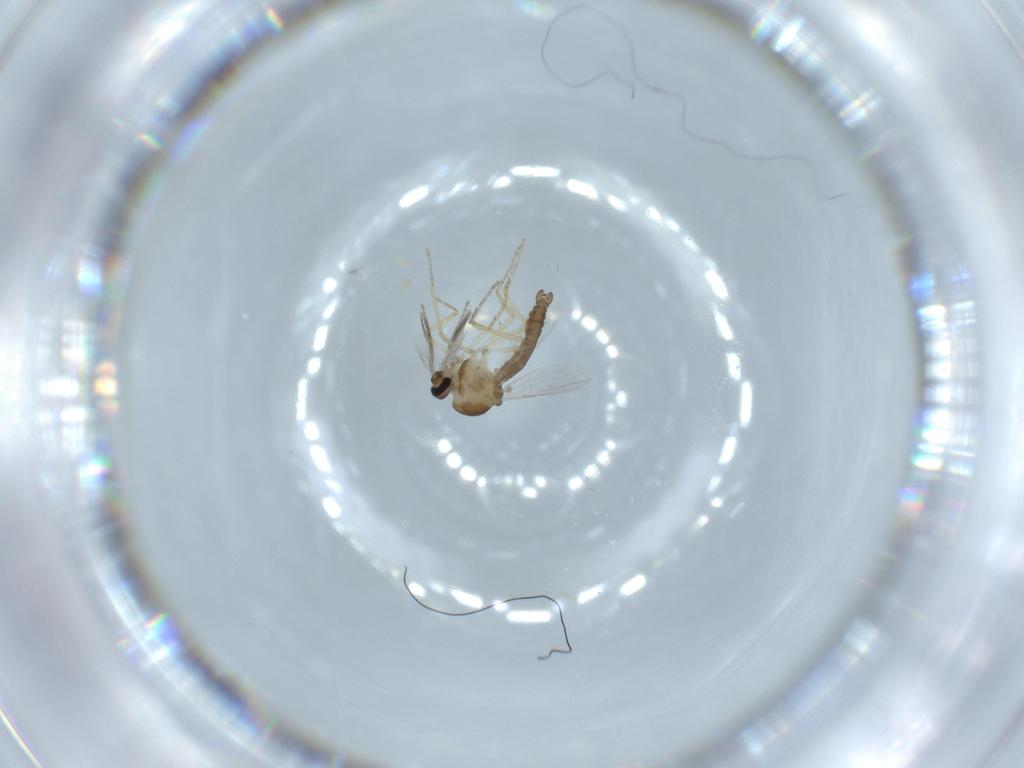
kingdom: Animalia
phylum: Arthropoda
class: Insecta
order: Diptera
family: Ceratopogonidae
